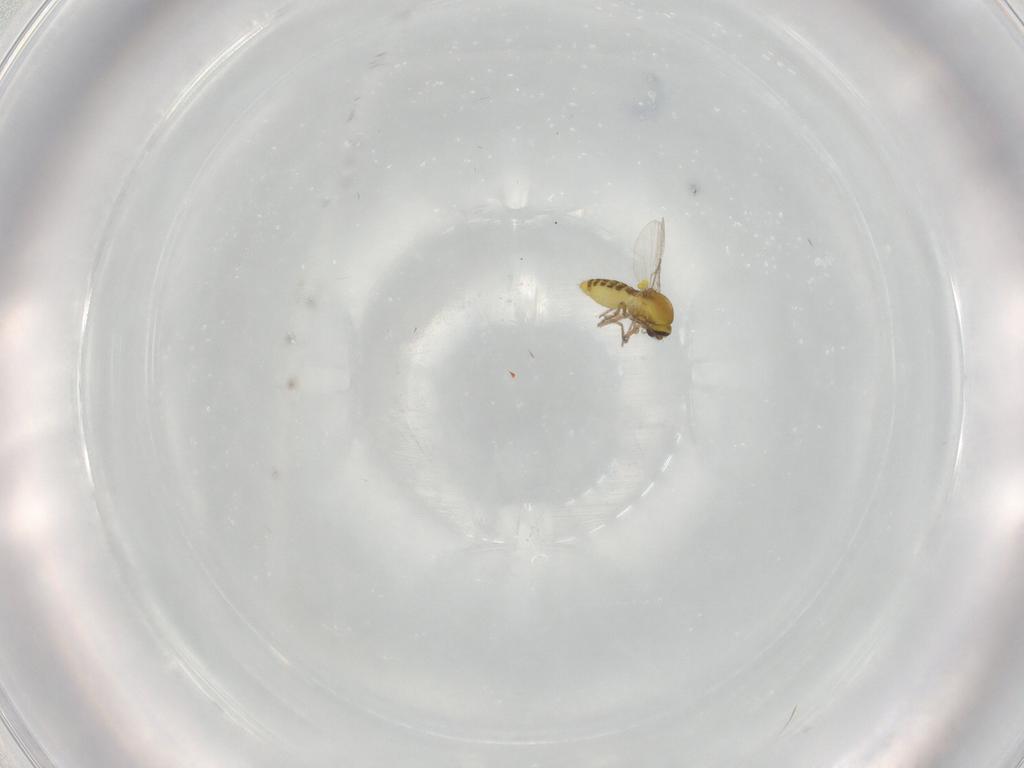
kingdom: Animalia
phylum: Arthropoda
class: Insecta
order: Diptera
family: Ceratopogonidae
